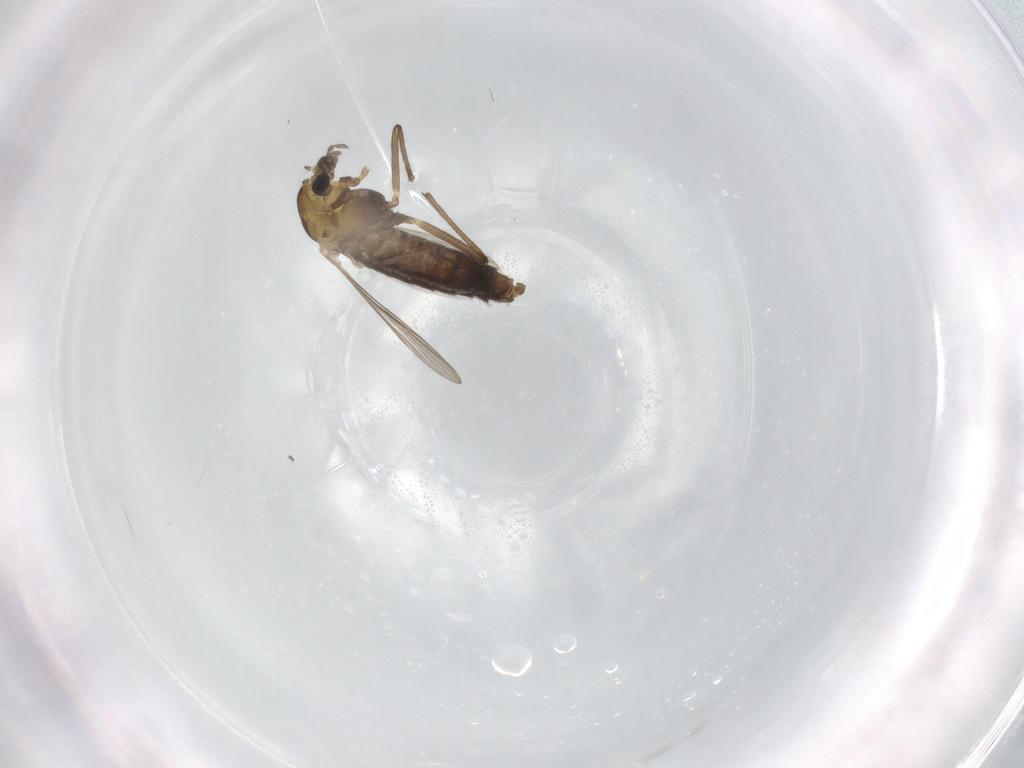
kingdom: Animalia
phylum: Arthropoda
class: Insecta
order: Diptera
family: Chironomidae
